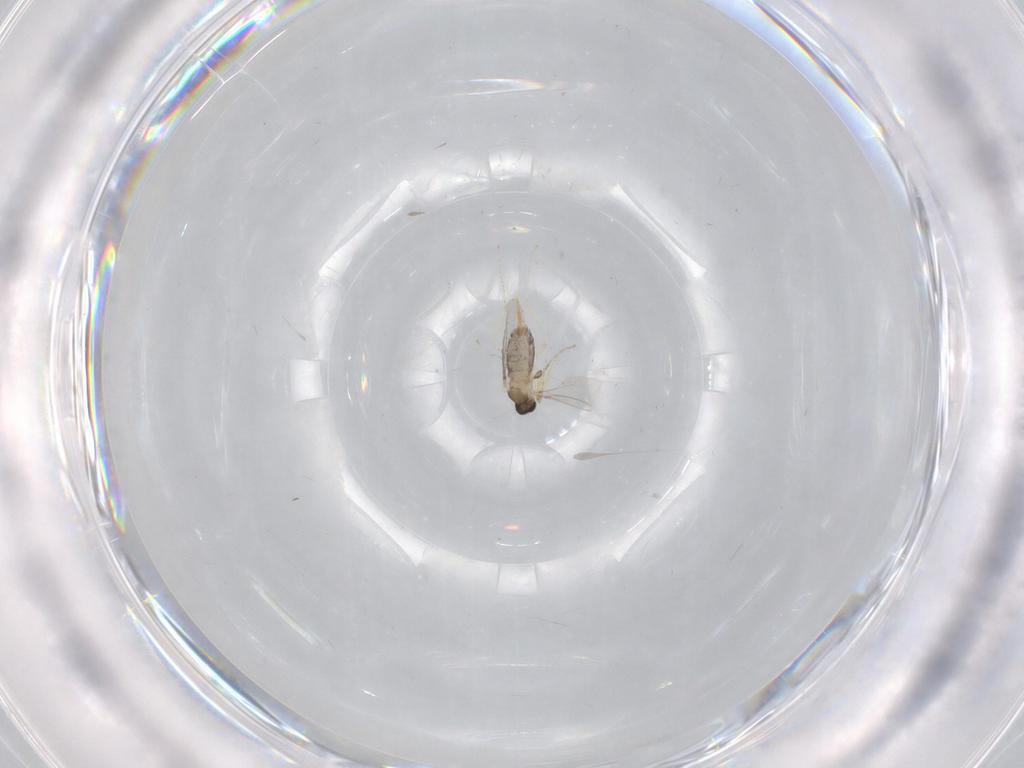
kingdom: Animalia
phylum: Arthropoda
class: Insecta
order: Diptera
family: Cecidomyiidae
